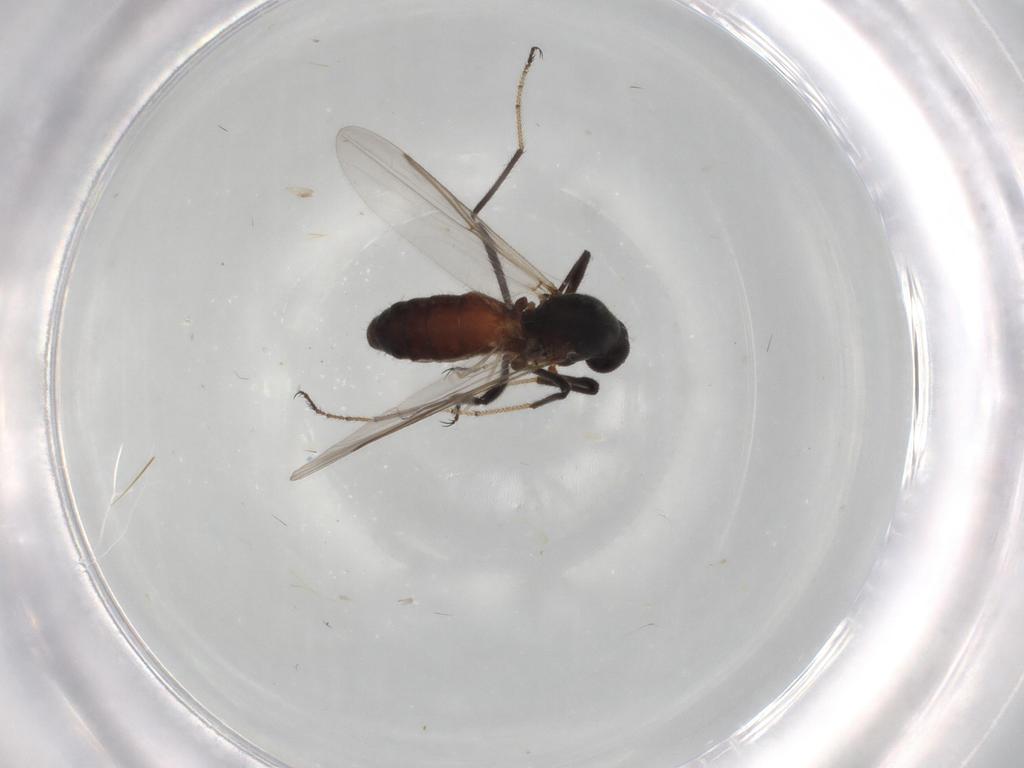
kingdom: Animalia
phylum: Arthropoda
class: Insecta
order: Diptera
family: Ceratopogonidae
